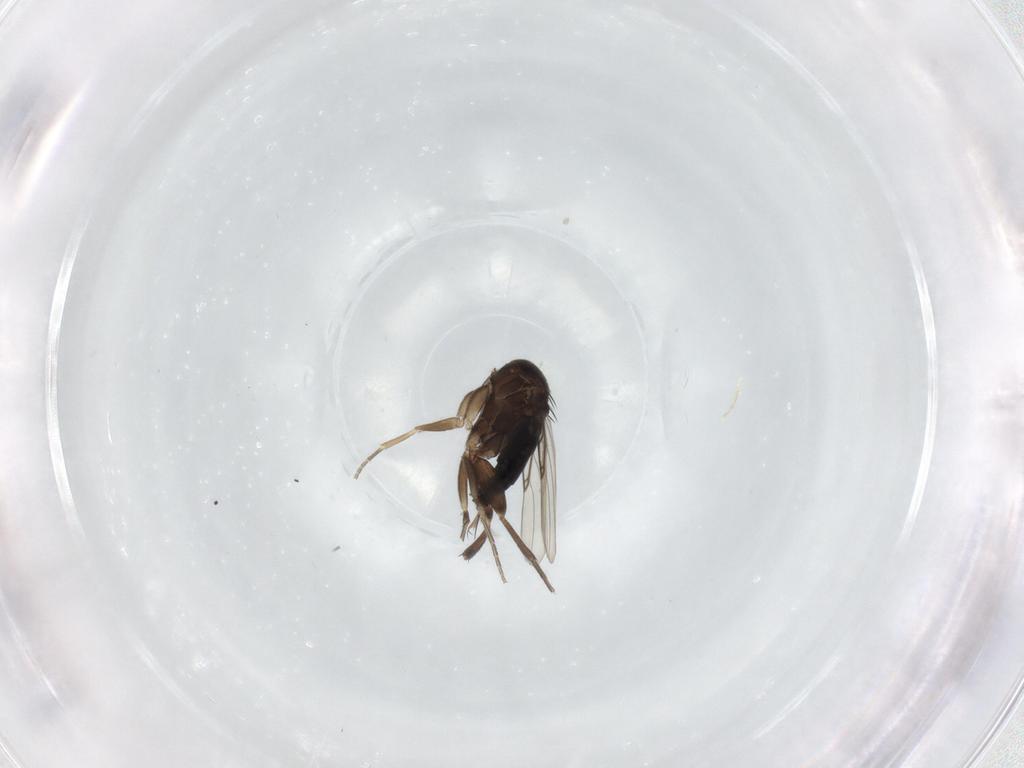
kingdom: Animalia
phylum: Arthropoda
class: Insecta
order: Diptera
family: Phoridae
